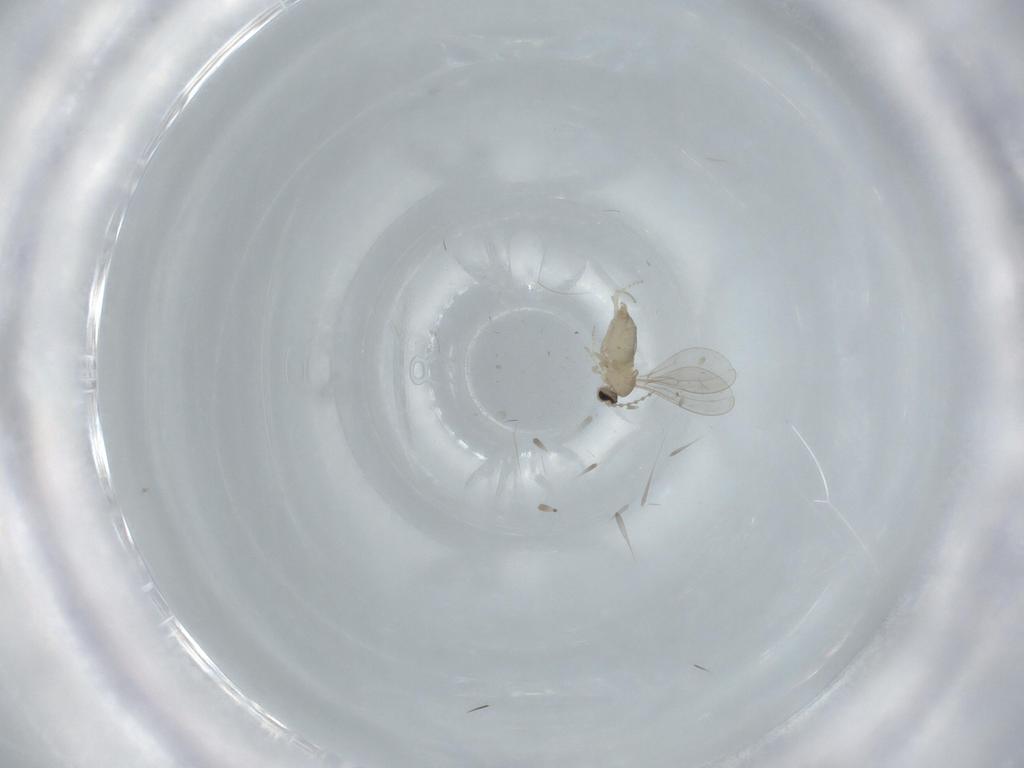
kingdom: Animalia
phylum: Arthropoda
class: Insecta
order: Diptera
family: Cecidomyiidae
